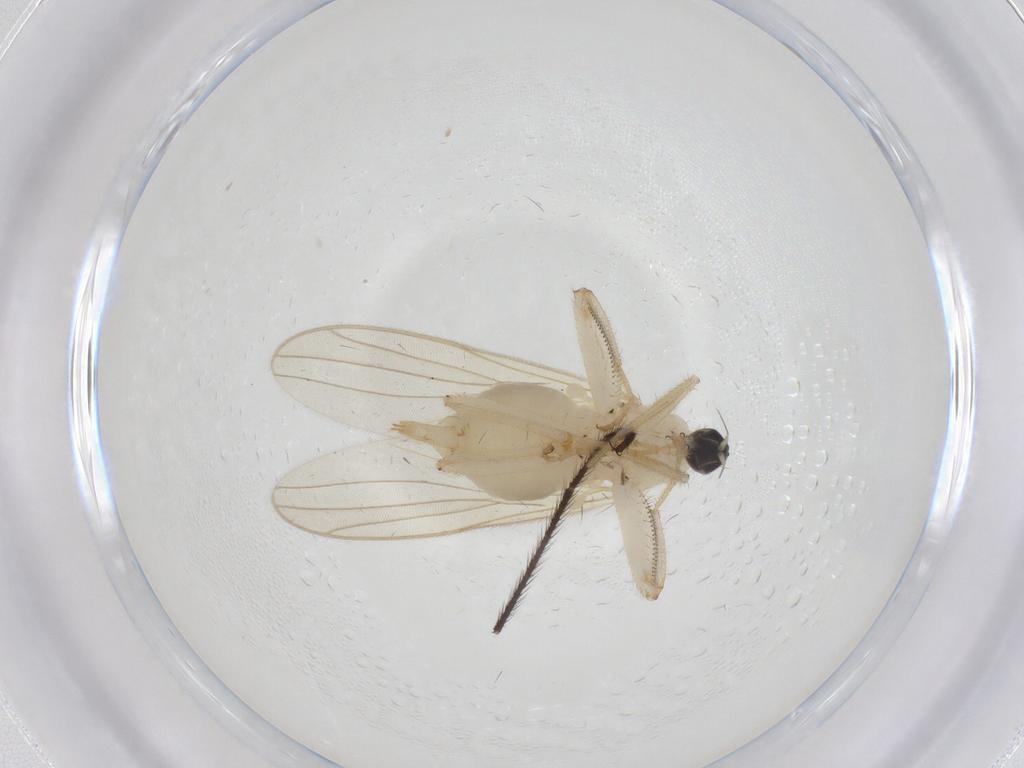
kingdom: Animalia
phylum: Arthropoda
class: Insecta
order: Diptera
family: Hybotidae
